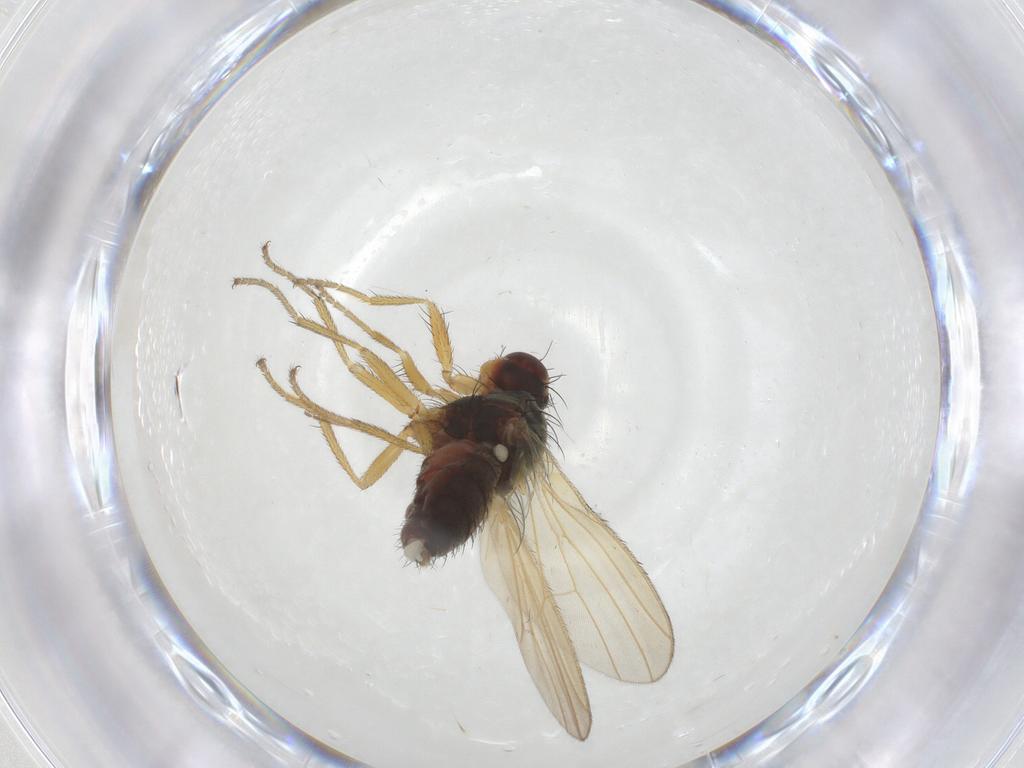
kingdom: Animalia
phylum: Arthropoda
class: Insecta
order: Diptera
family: Heleomyzidae
